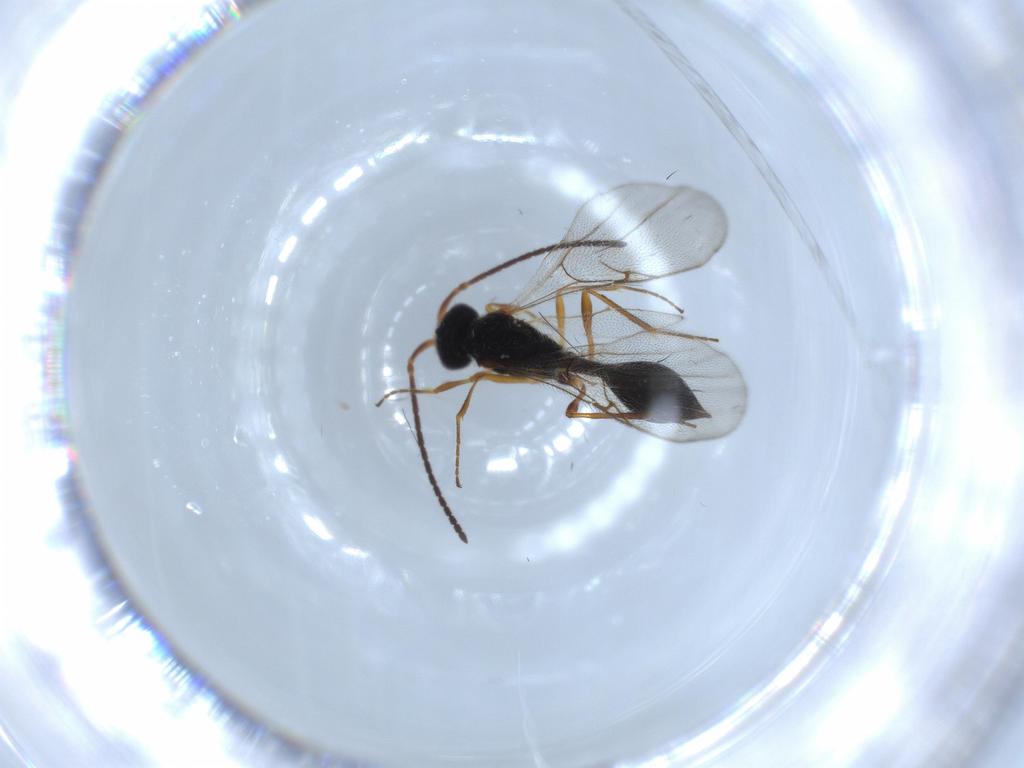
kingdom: Animalia
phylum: Arthropoda
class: Insecta
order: Hymenoptera
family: Diapriidae
